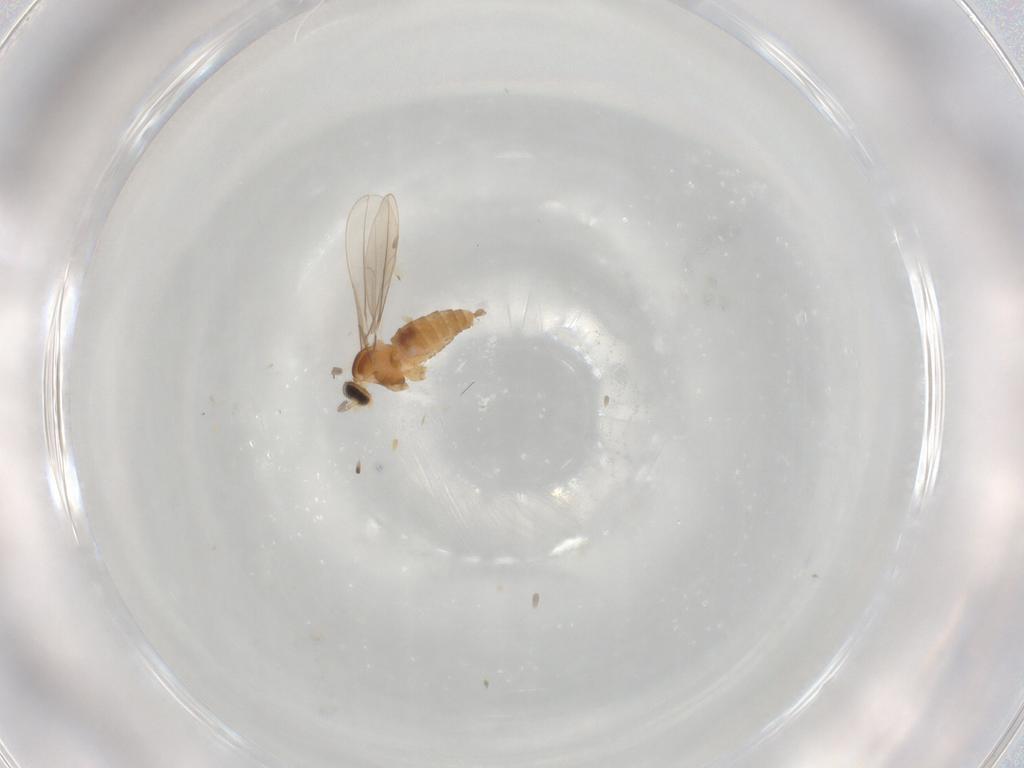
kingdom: Animalia
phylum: Arthropoda
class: Insecta
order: Diptera
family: Cecidomyiidae
